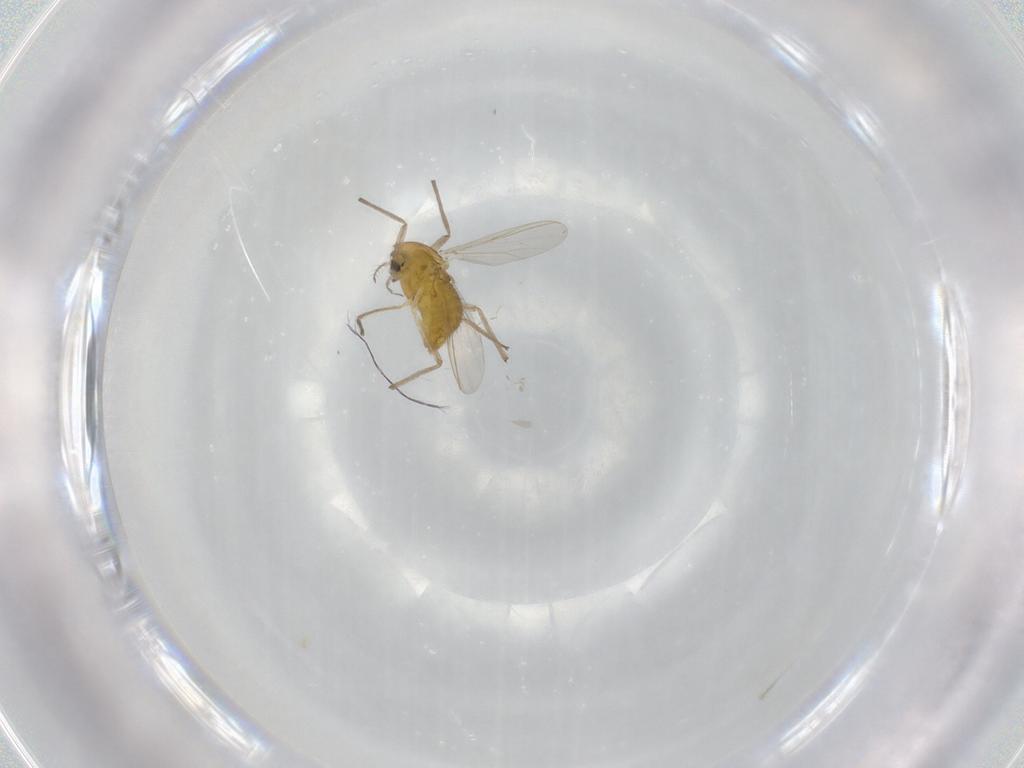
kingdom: Animalia
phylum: Arthropoda
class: Insecta
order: Diptera
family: Chironomidae
